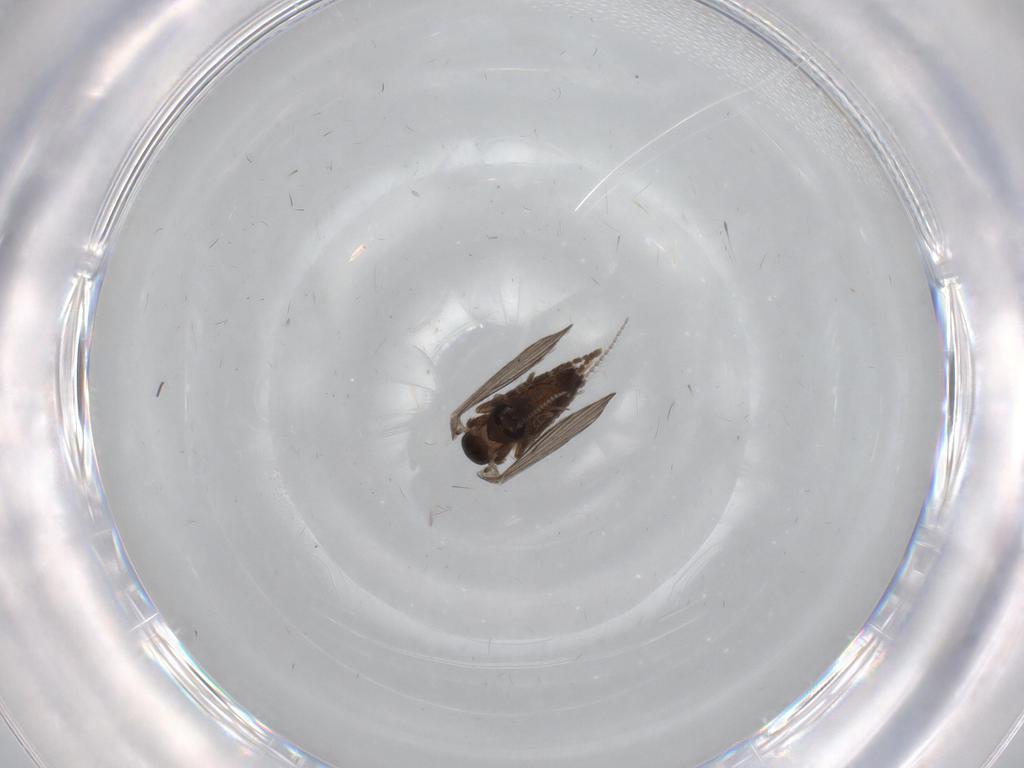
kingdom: Animalia
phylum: Arthropoda
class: Insecta
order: Diptera
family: Psychodidae
